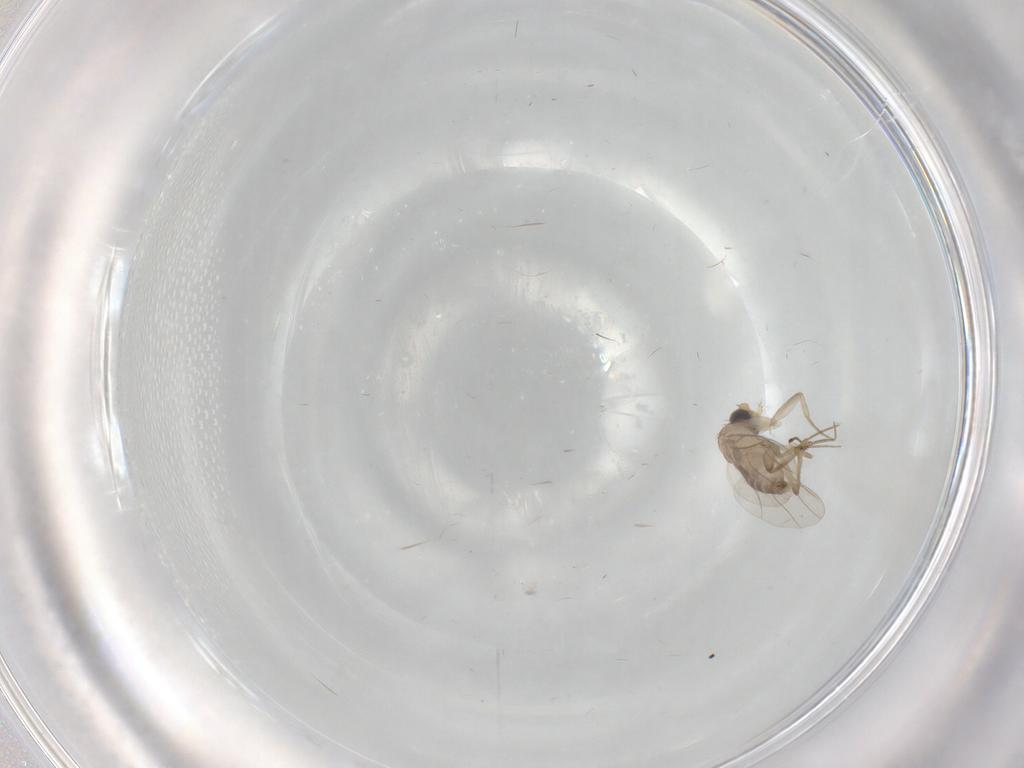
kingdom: Animalia
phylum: Arthropoda
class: Insecta
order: Diptera
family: Phoridae
